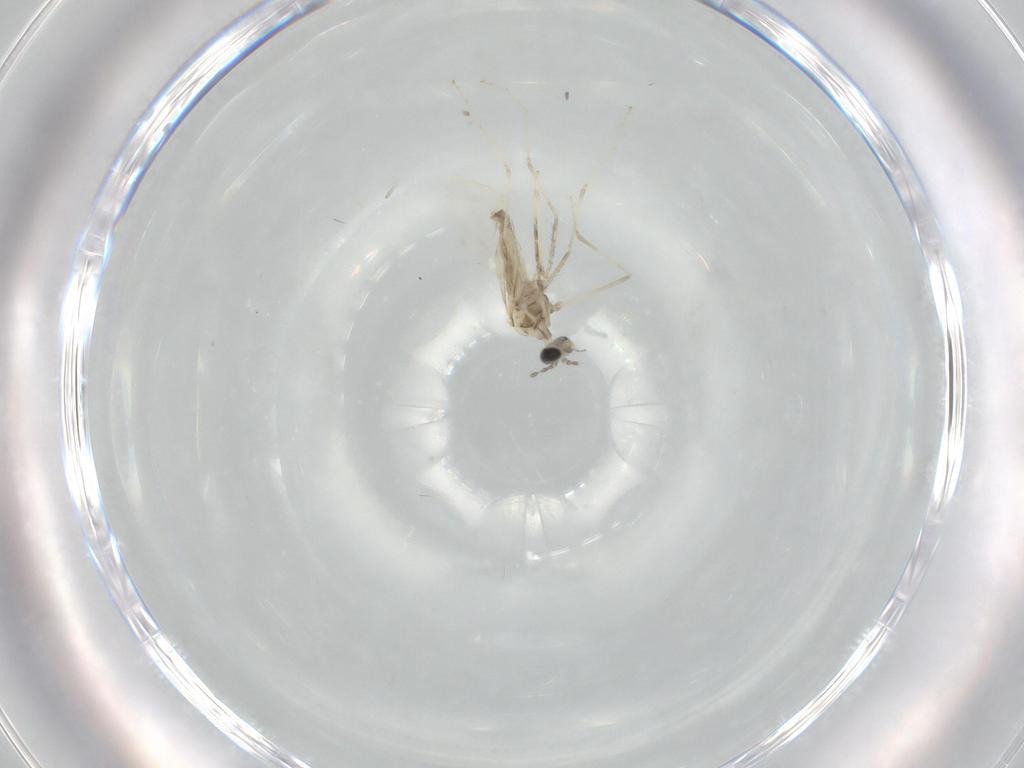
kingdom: Animalia
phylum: Arthropoda
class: Insecta
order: Diptera
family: Cecidomyiidae
